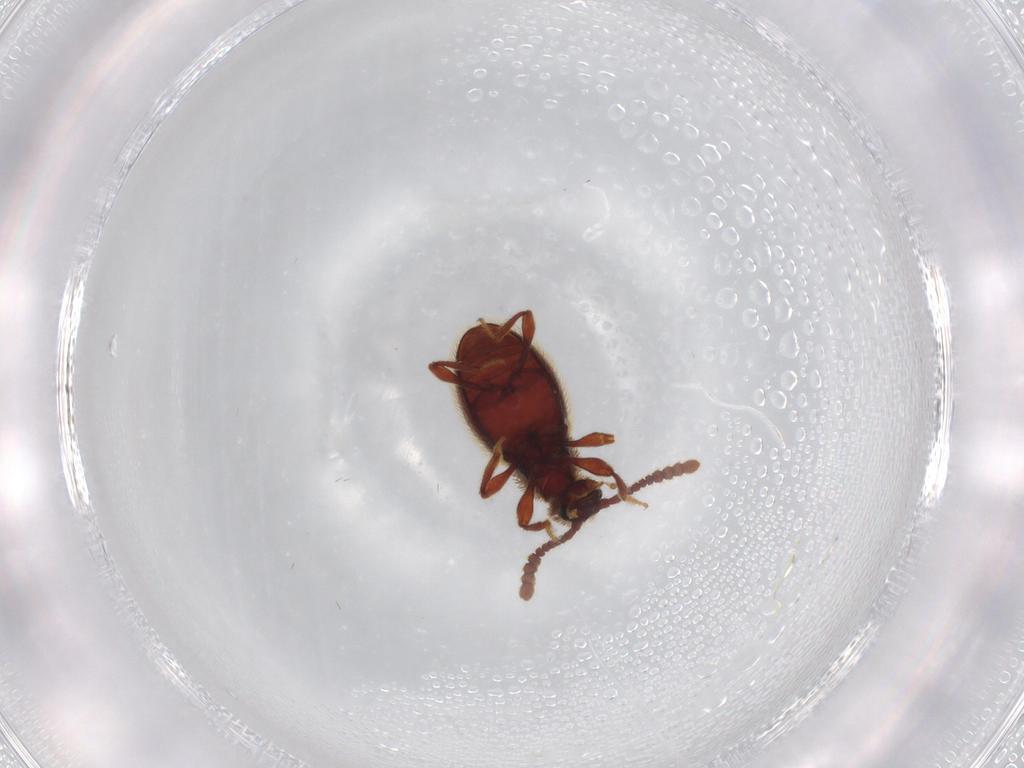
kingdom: Animalia
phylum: Arthropoda
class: Insecta
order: Coleoptera
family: Staphylinidae
